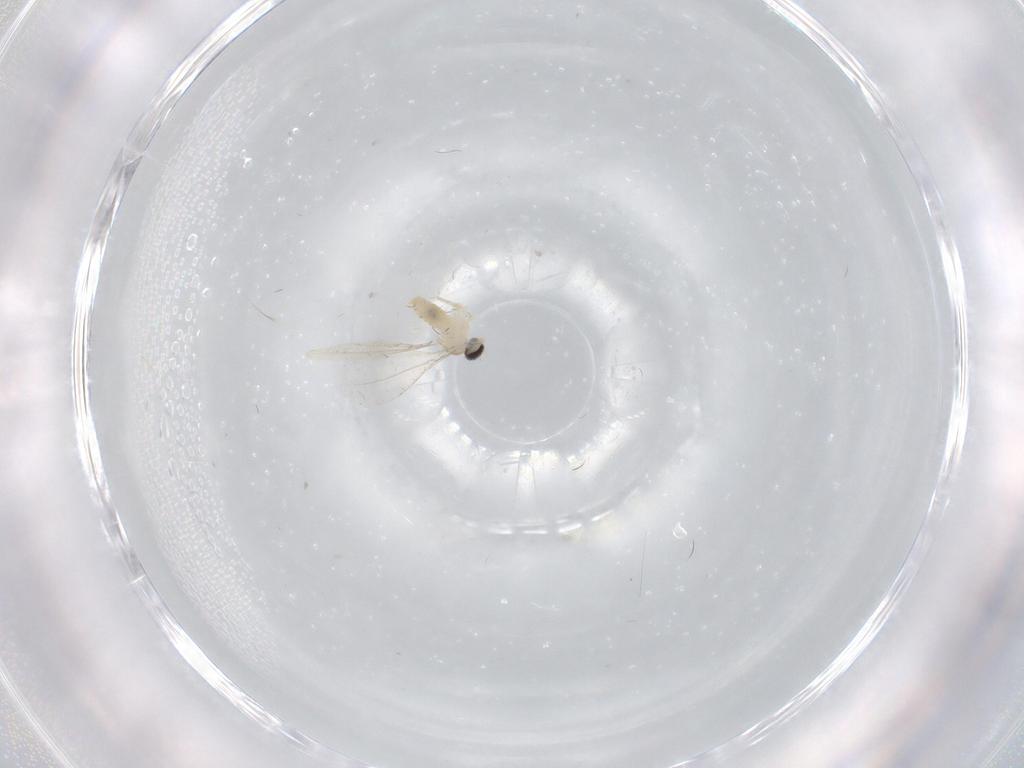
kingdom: Animalia
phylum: Arthropoda
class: Insecta
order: Diptera
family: Cecidomyiidae
